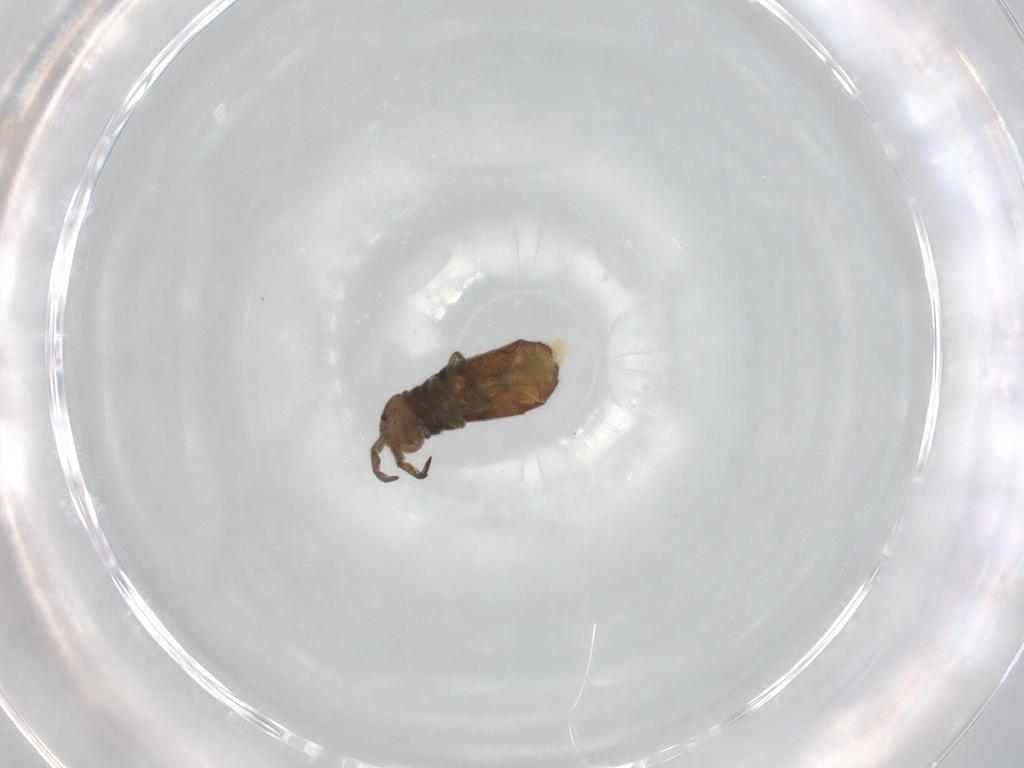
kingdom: Animalia
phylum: Arthropoda
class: Collembola
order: Entomobryomorpha
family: Isotomidae
